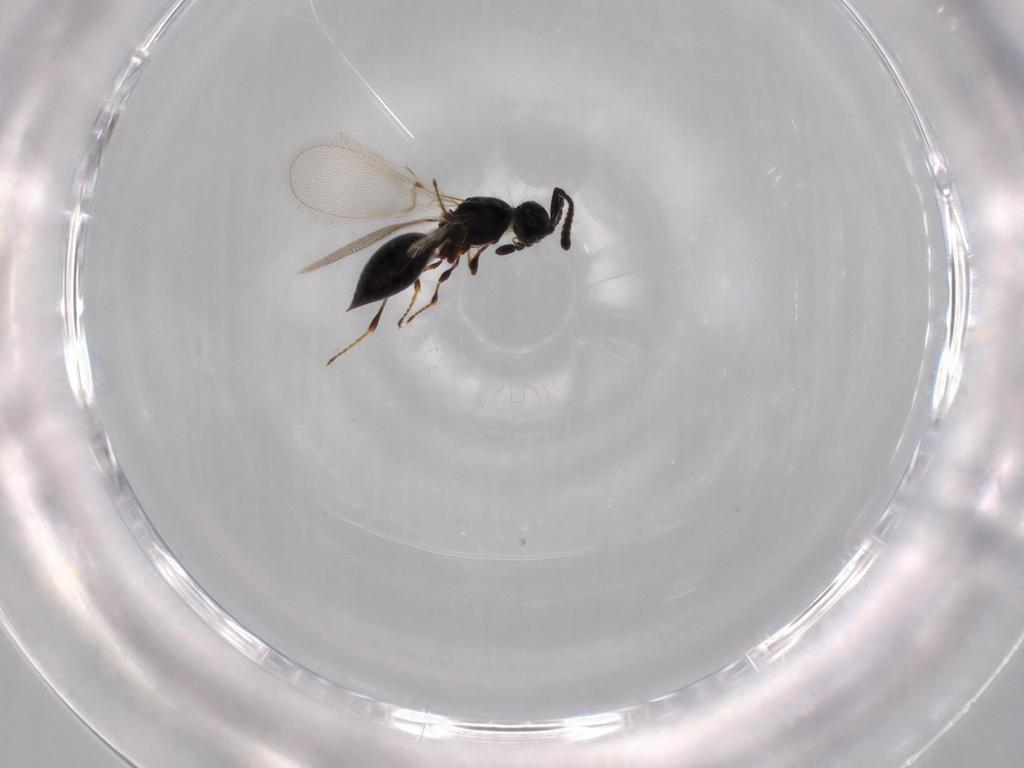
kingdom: Animalia
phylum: Arthropoda
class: Insecta
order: Hymenoptera
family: Diapriidae
